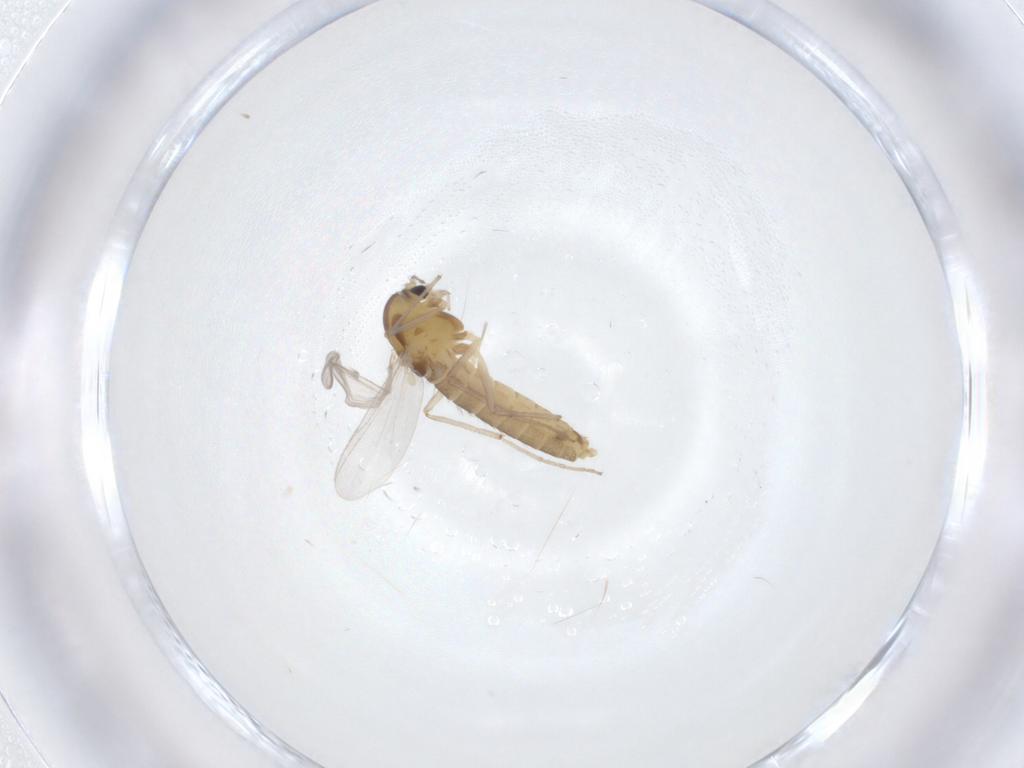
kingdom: Animalia
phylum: Arthropoda
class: Insecta
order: Diptera
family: Chironomidae
